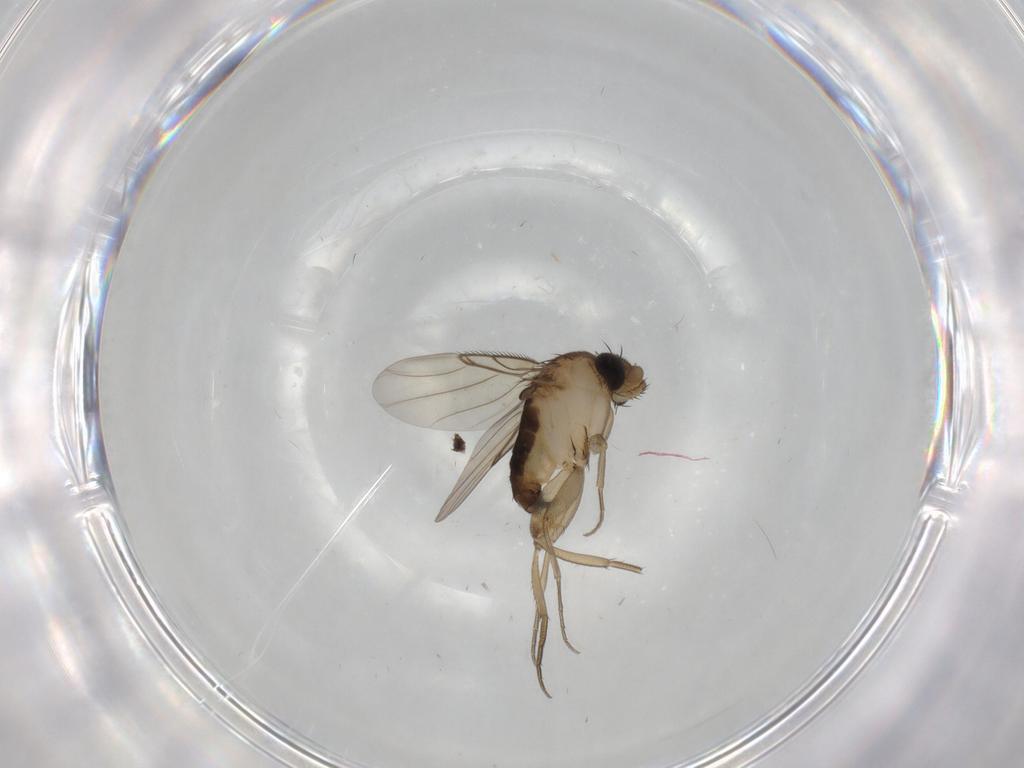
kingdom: Animalia
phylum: Arthropoda
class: Insecta
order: Diptera
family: Phoridae
